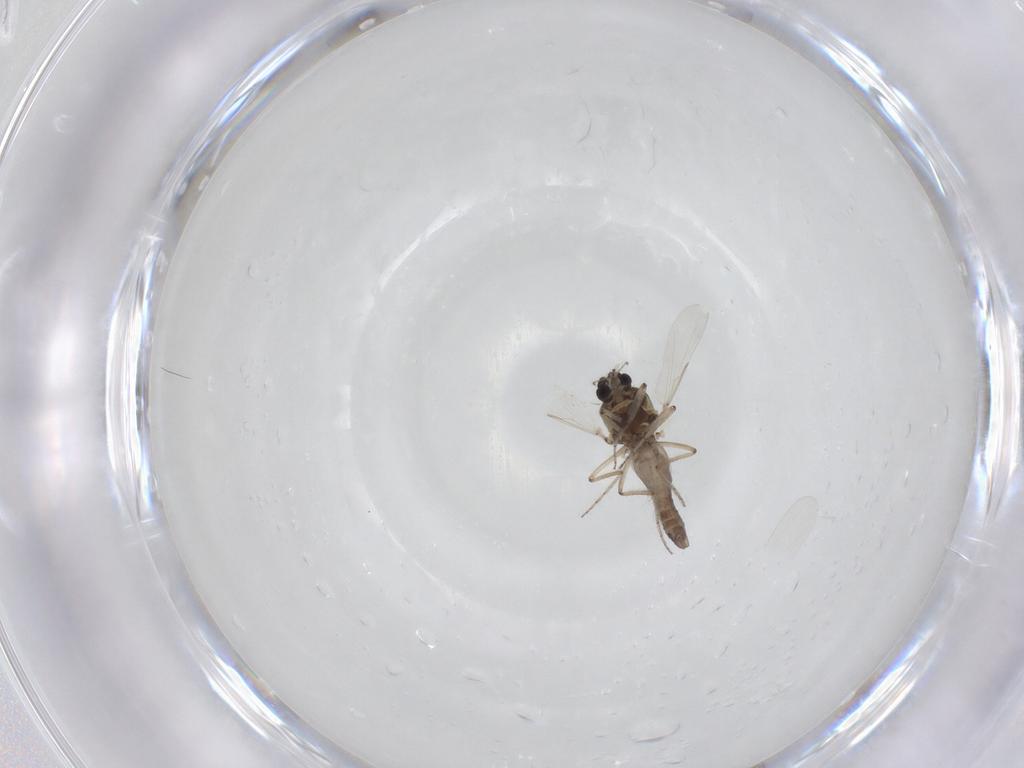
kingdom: Animalia
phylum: Arthropoda
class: Insecta
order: Diptera
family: Ceratopogonidae
